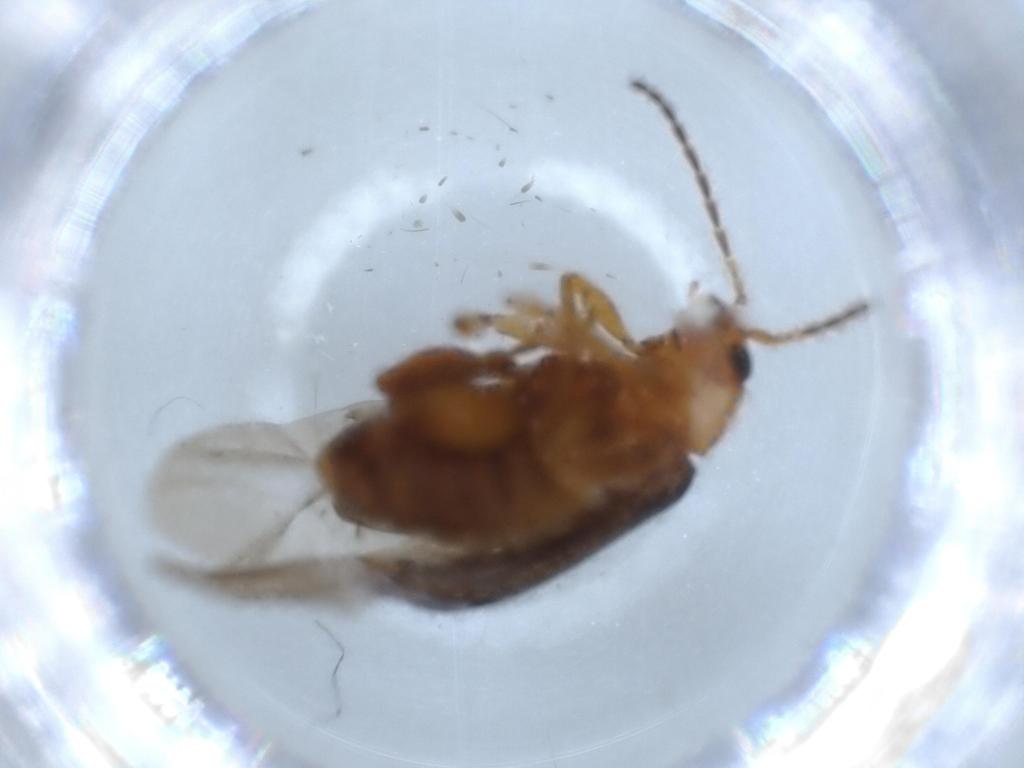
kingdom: Animalia
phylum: Arthropoda
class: Insecta
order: Coleoptera
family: Chrysomelidae
